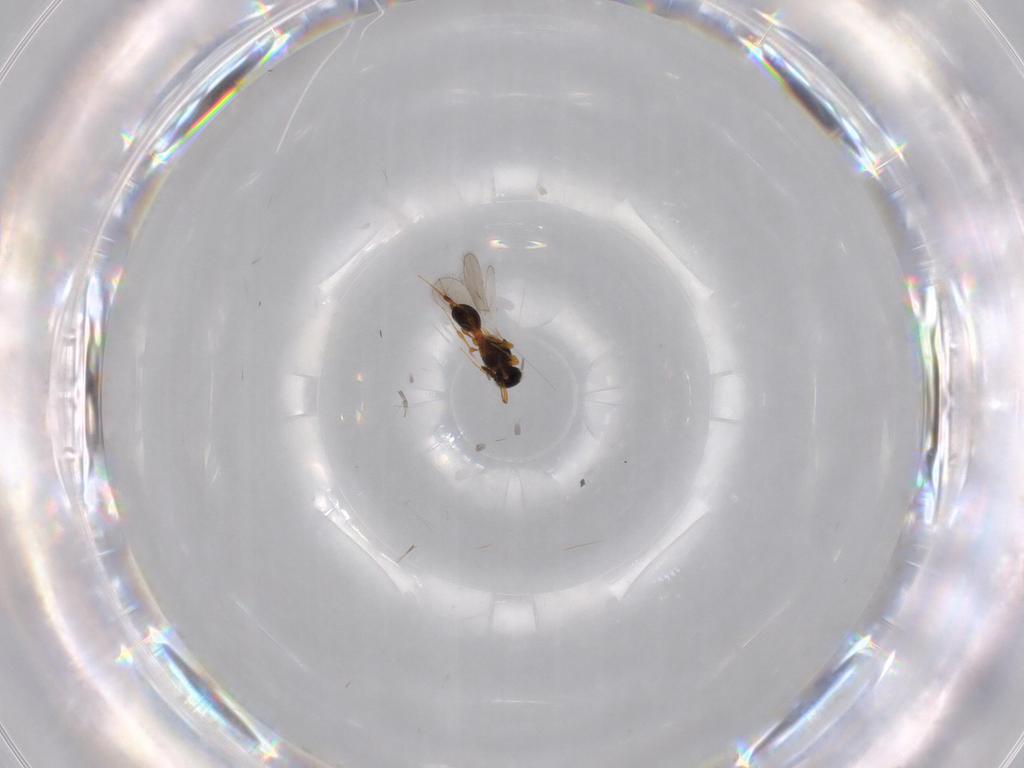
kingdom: Animalia
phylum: Arthropoda
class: Insecta
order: Hymenoptera
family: Platygastridae
